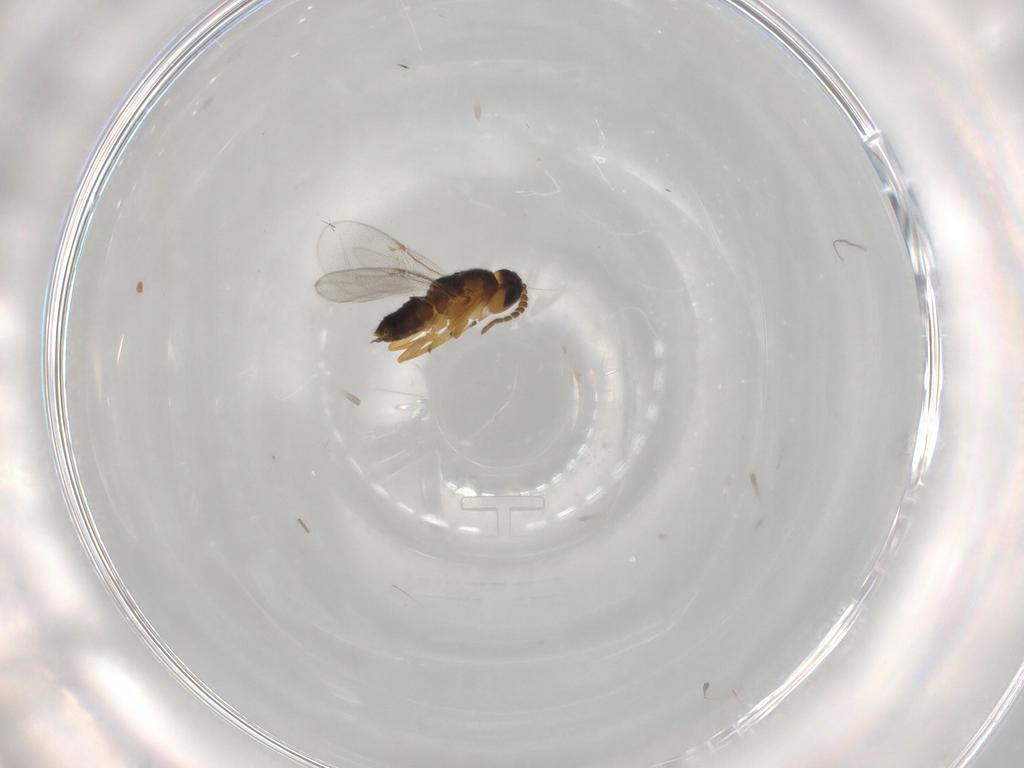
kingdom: Animalia
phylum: Arthropoda
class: Insecta
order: Hymenoptera
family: Encyrtidae
